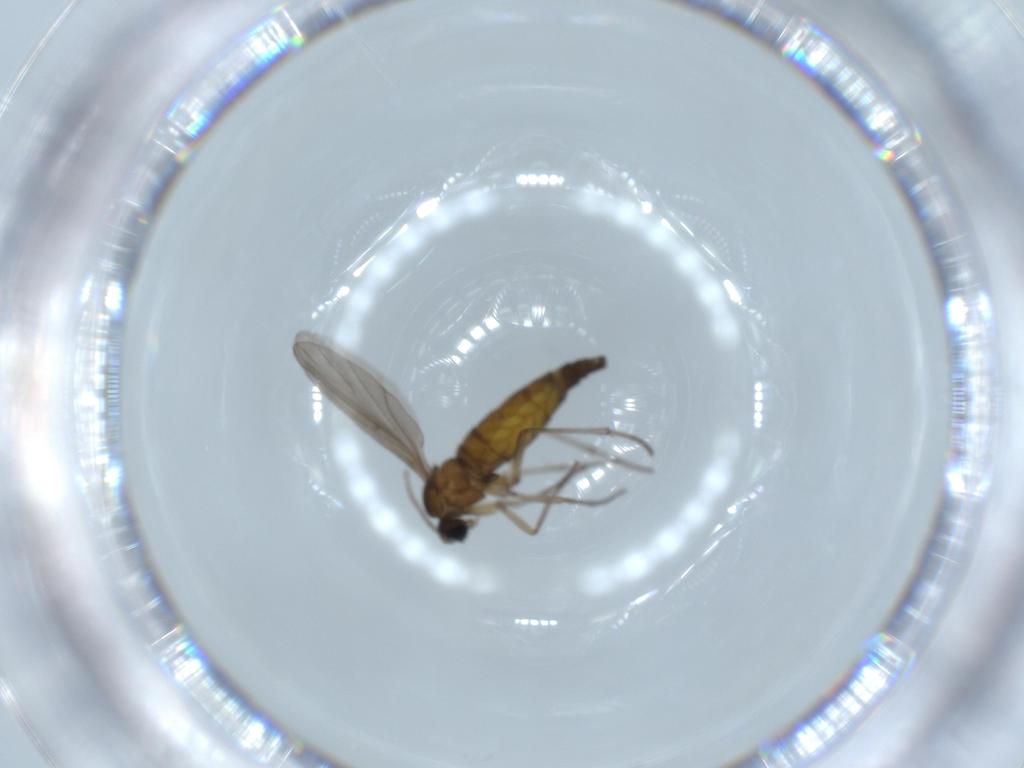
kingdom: Animalia
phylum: Arthropoda
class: Insecta
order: Diptera
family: Sciaridae
